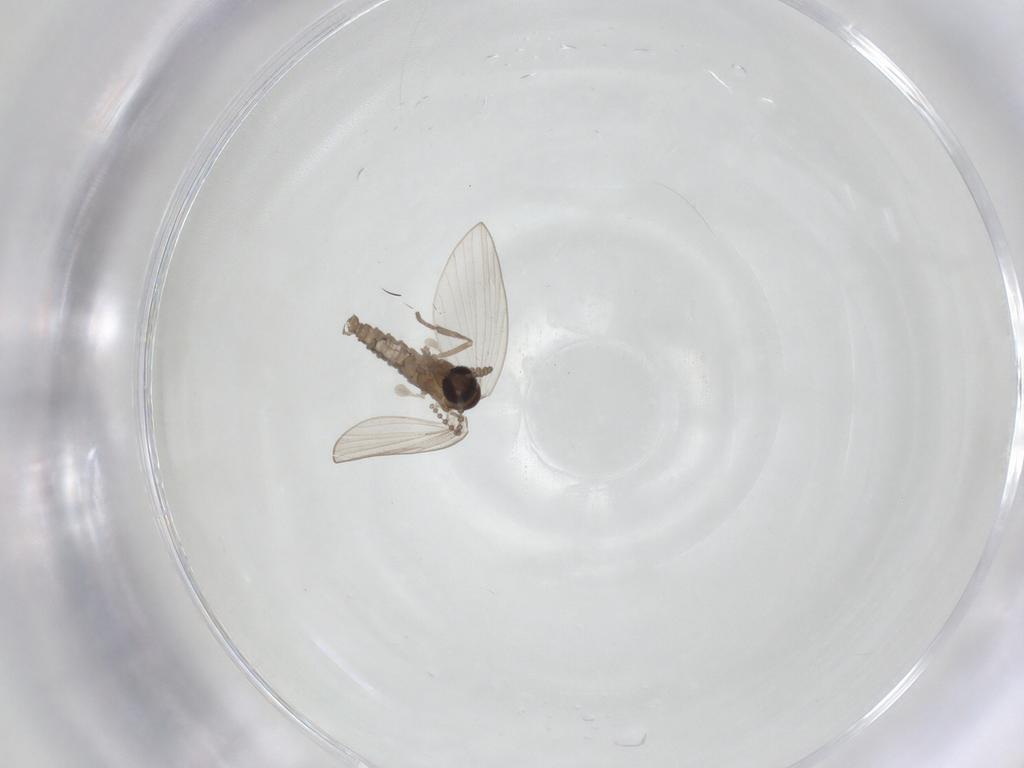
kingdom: Animalia
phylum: Arthropoda
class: Insecta
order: Diptera
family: Psychodidae
